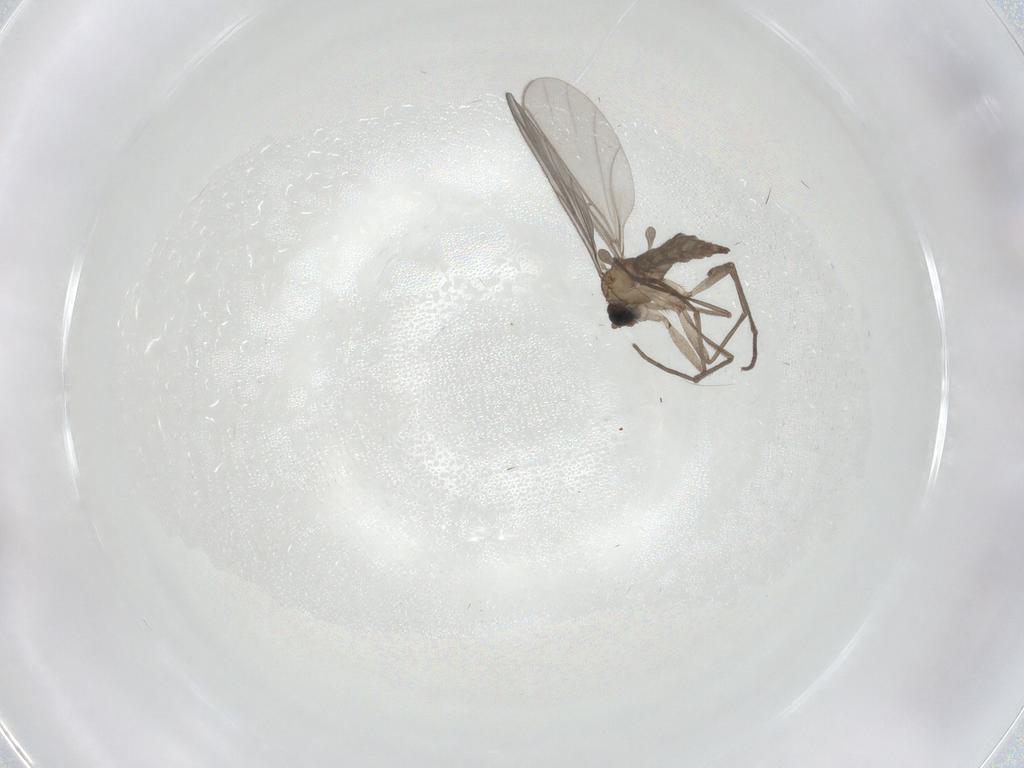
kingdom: Animalia
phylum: Arthropoda
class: Insecta
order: Diptera
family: Sciaridae
